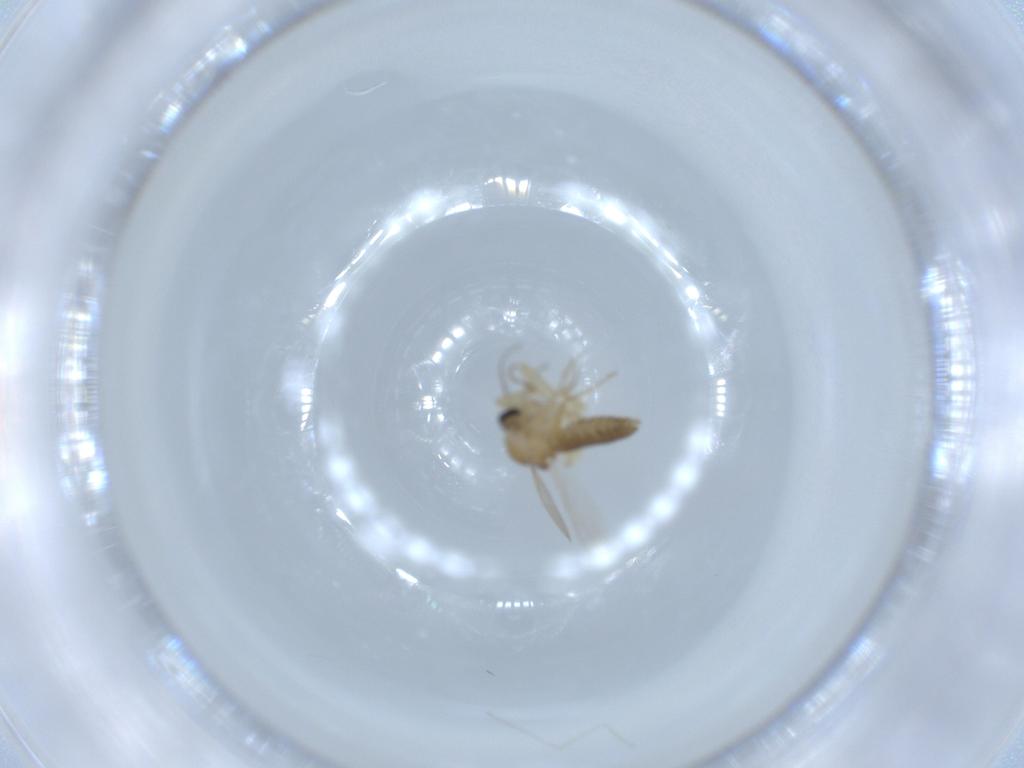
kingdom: Animalia
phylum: Arthropoda
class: Insecta
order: Diptera
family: Ceratopogonidae
